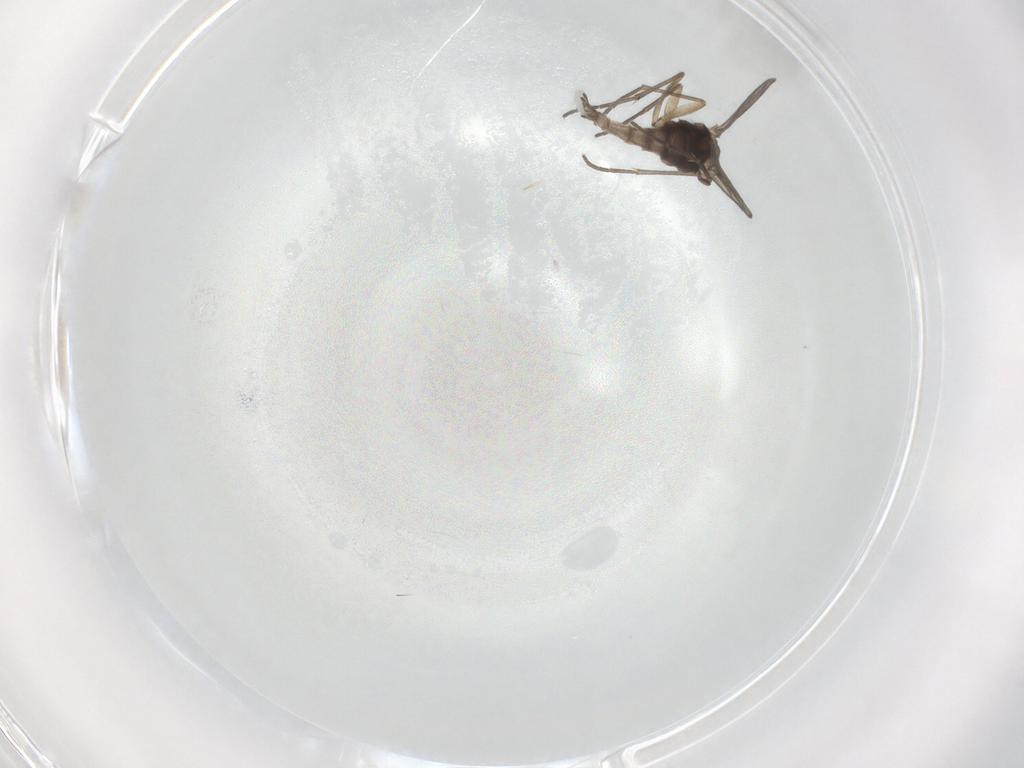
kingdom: Animalia
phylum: Arthropoda
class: Insecta
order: Diptera
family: Sciaridae
